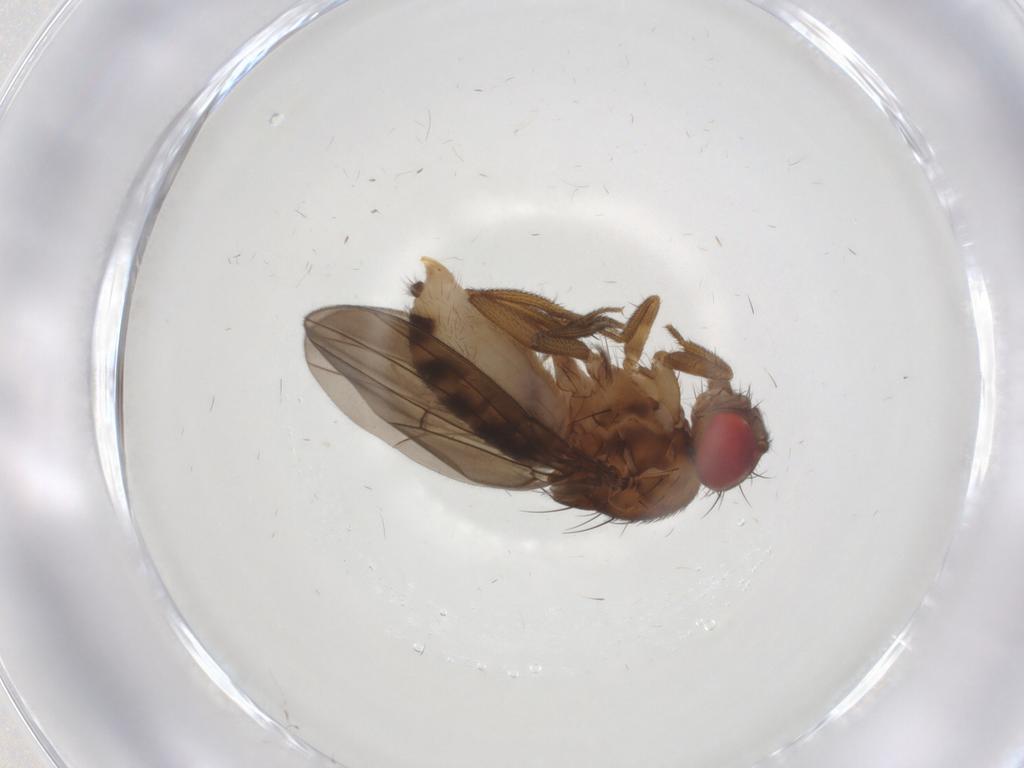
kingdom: Animalia
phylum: Arthropoda
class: Insecta
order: Diptera
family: Drosophilidae
